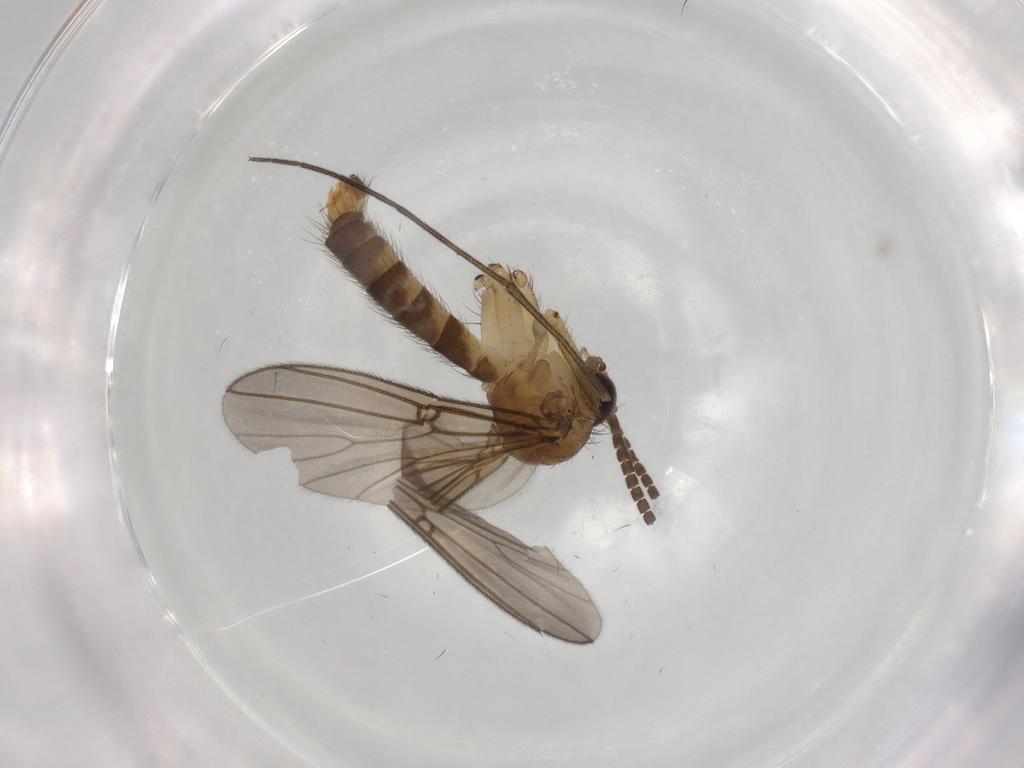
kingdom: Animalia
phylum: Arthropoda
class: Insecta
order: Diptera
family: Mycetophilidae
